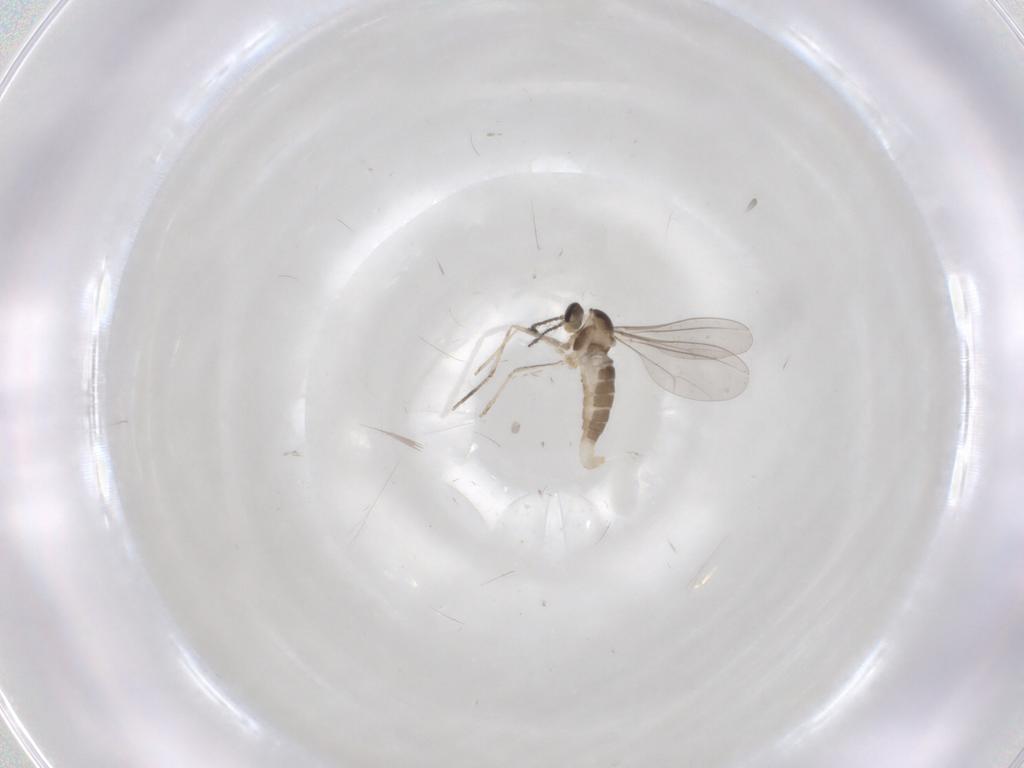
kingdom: Animalia
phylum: Arthropoda
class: Insecta
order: Diptera
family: Cecidomyiidae
